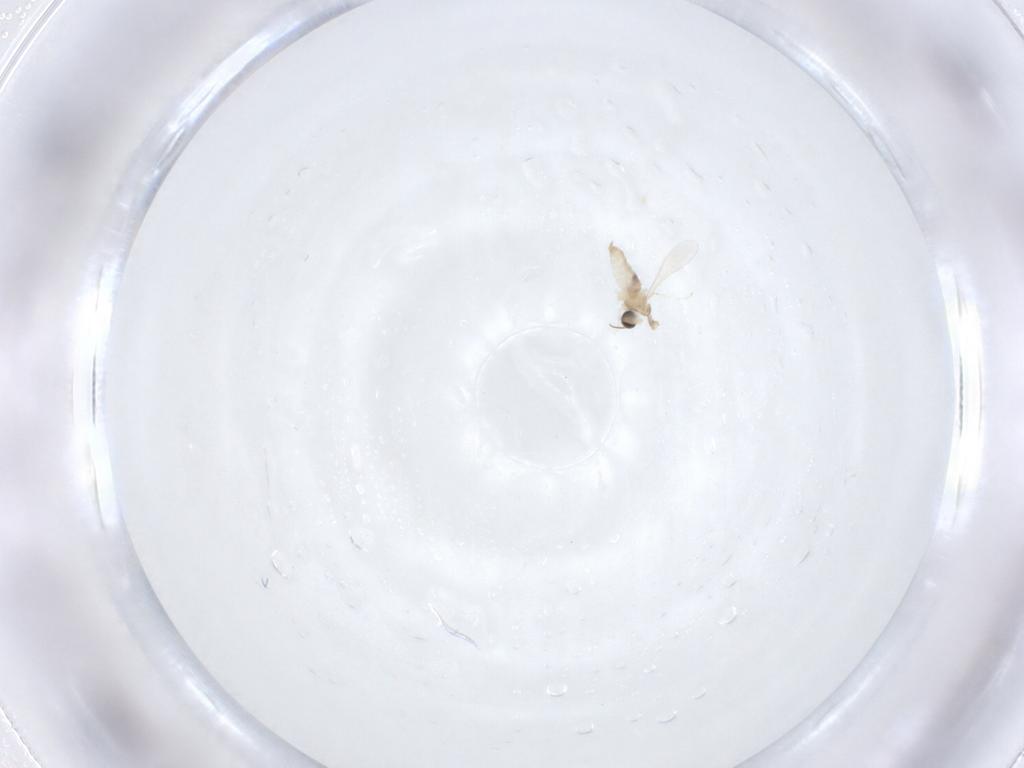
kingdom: Animalia
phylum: Arthropoda
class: Insecta
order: Diptera
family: Cecidomyiidae
